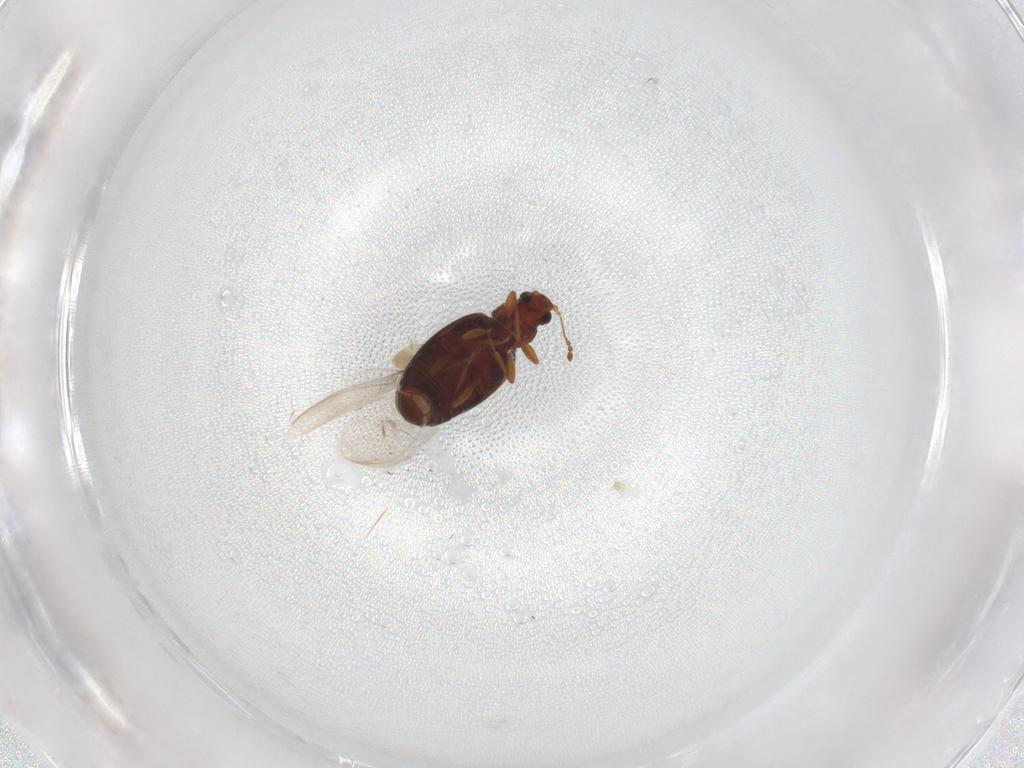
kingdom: Animalia
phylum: Arthropoda
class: Insecta
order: Coleoptera
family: Latridiidae
